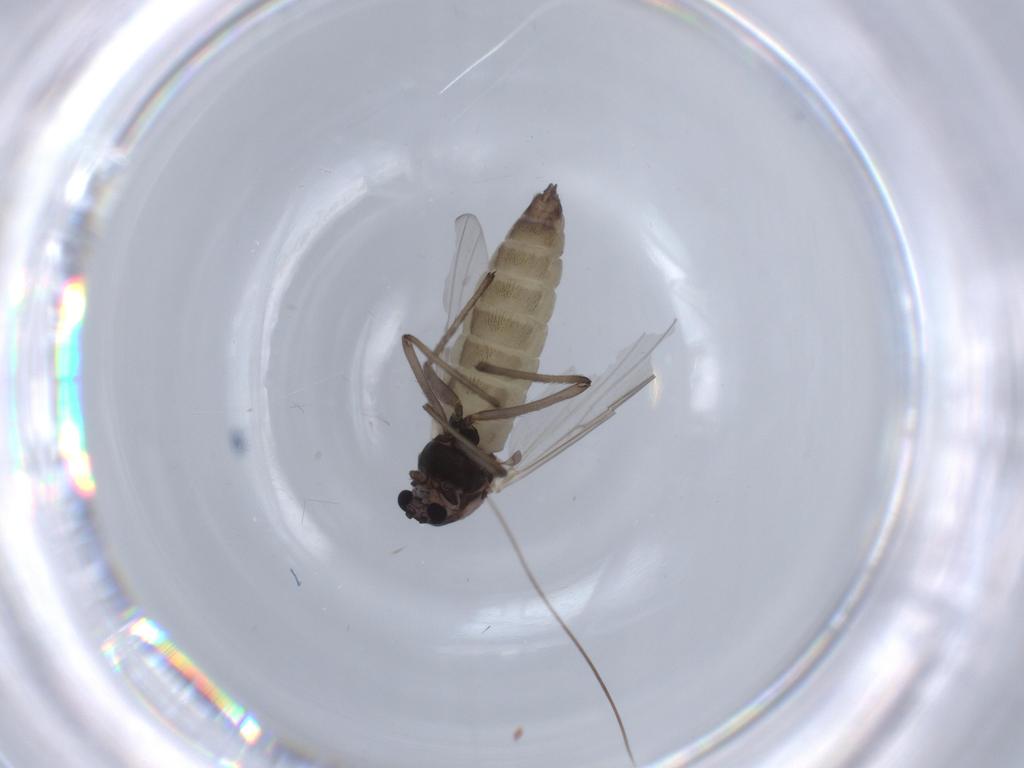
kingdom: Animalia
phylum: Arthropoda
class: Insecta
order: Diptera
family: Chironomidae
